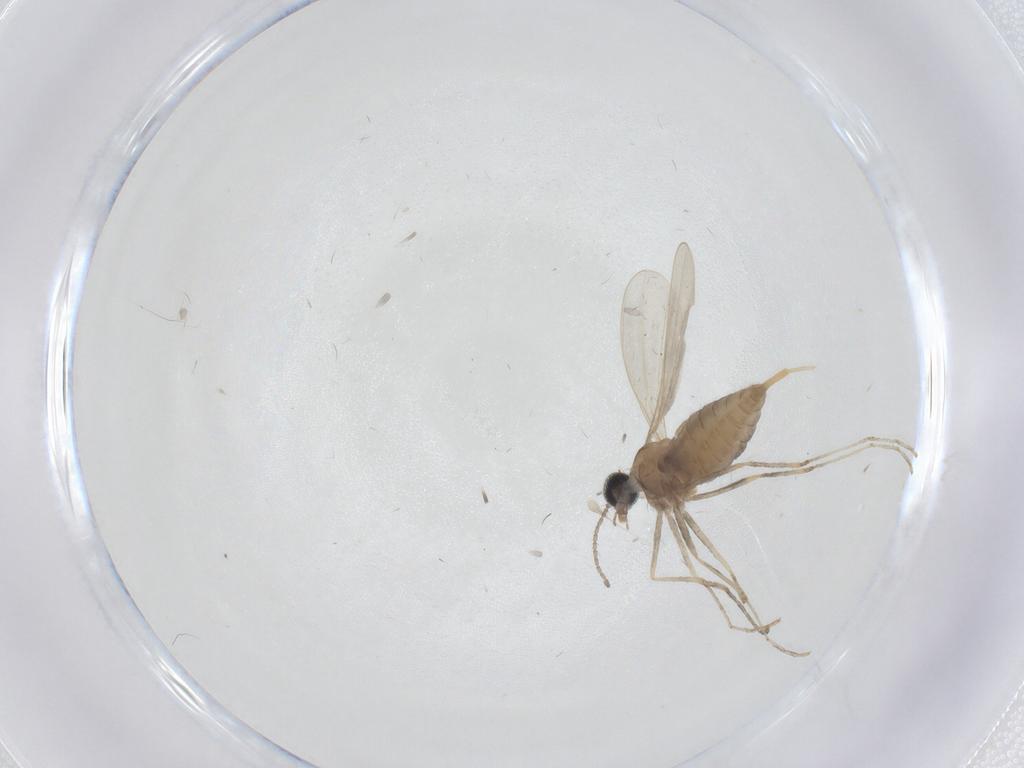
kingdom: Animalia
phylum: Arthropoda
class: Insecta
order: Diptera
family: Cecidomyiidae
